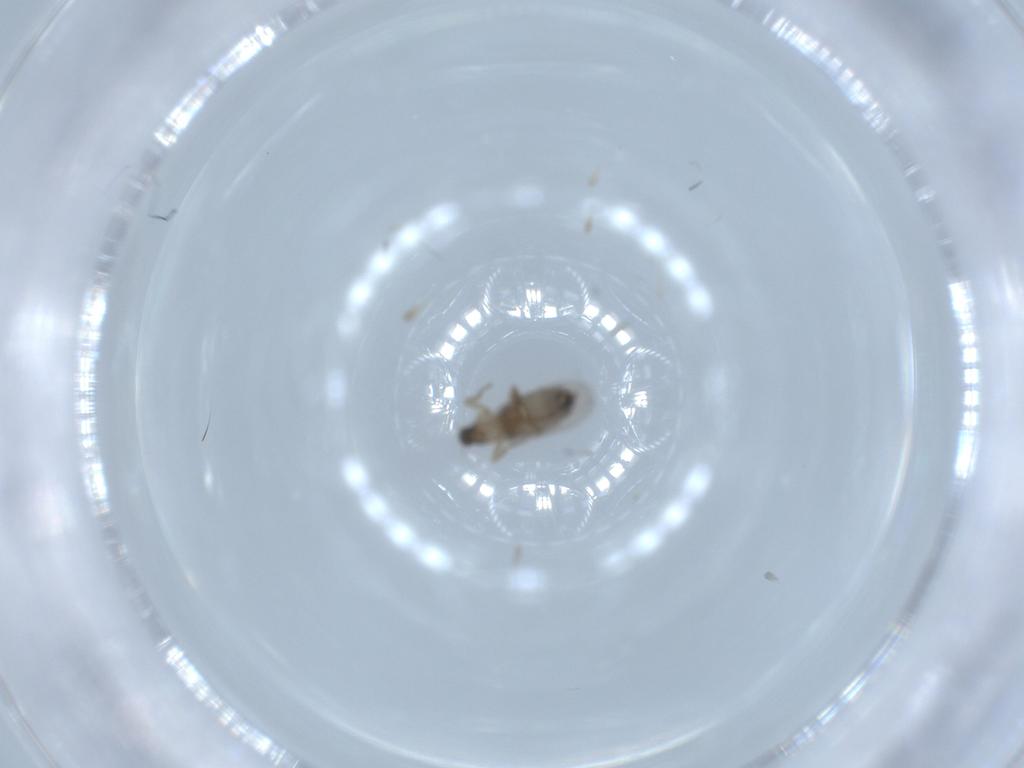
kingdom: Animalia
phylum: Arthropoda
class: Insecta
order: Diptera
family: Phoridae
